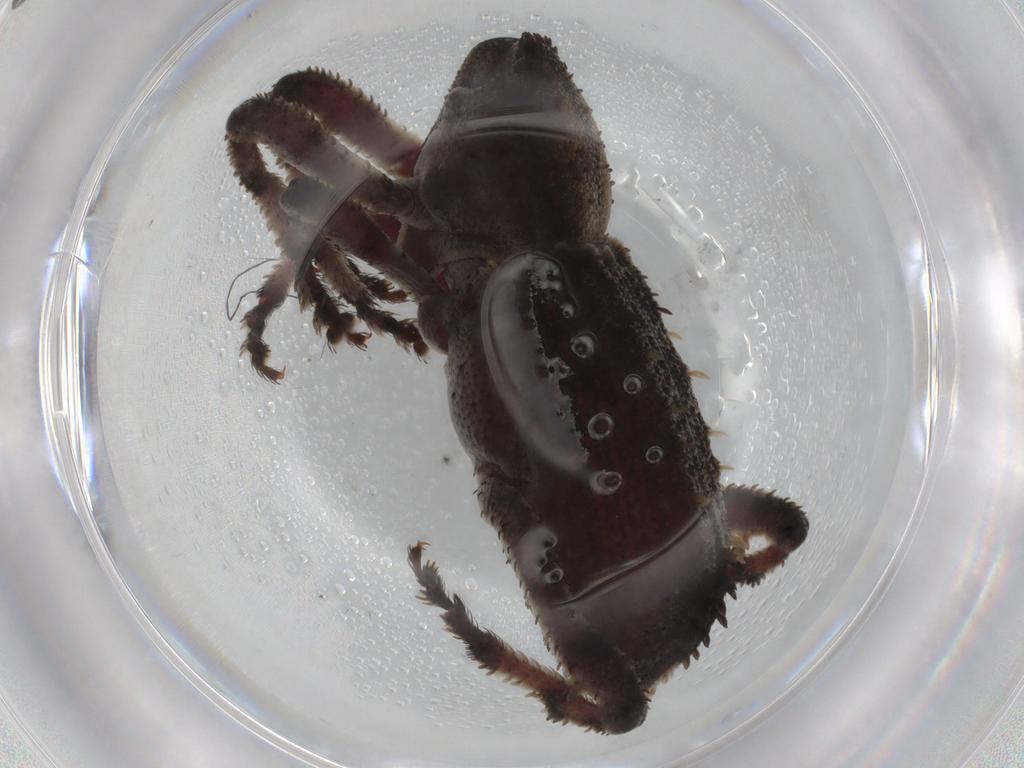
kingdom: Animalia
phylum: Arthropoda
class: Insecta
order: Coleoptera
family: Curculionidae
